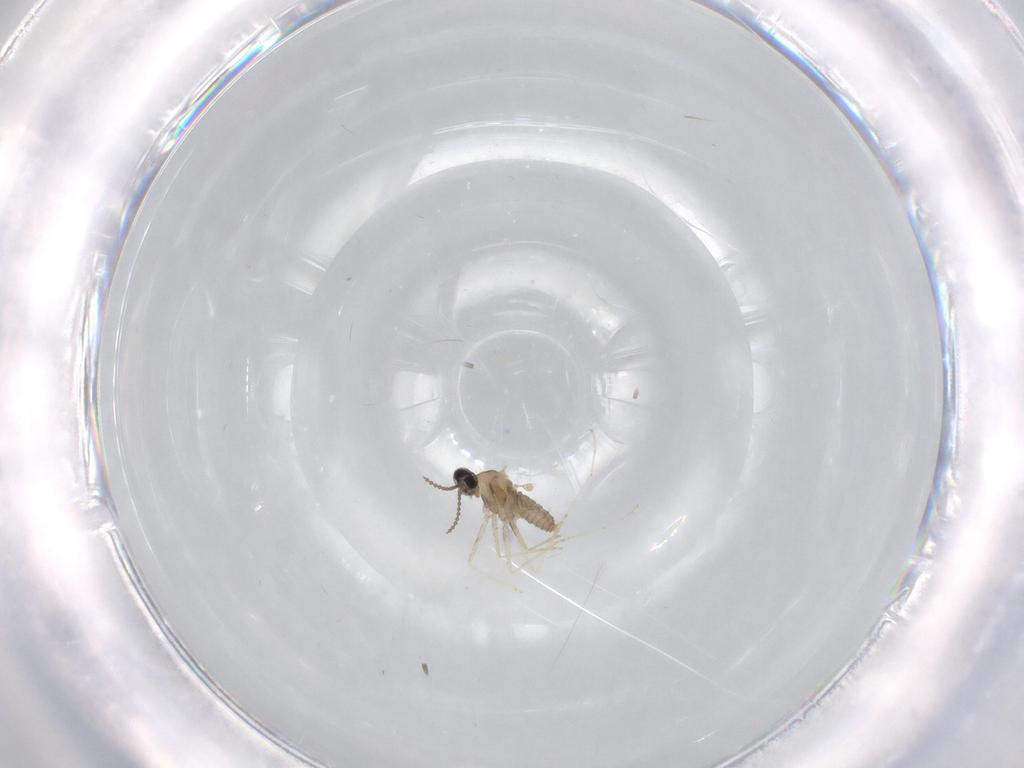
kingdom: Animalia
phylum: Arthropoda
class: Insecta
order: Diptera
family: Cecidomyiidae
